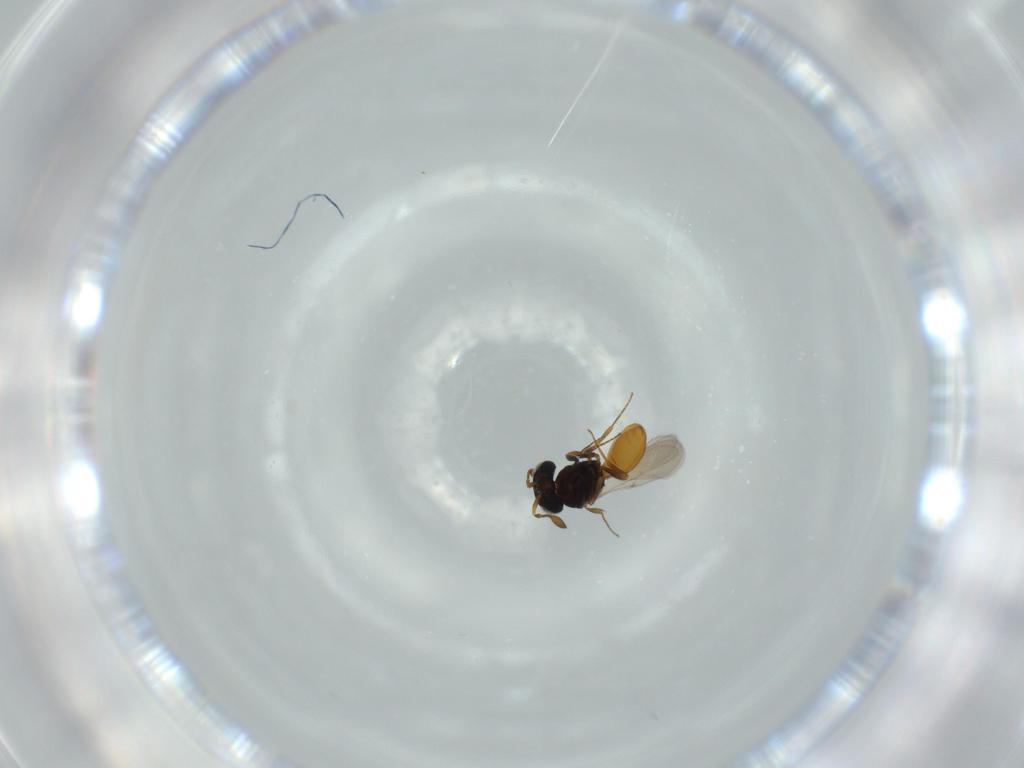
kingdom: Animalia
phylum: Arthropoda
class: Insecta
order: Hymenoptera
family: Scelionidae
